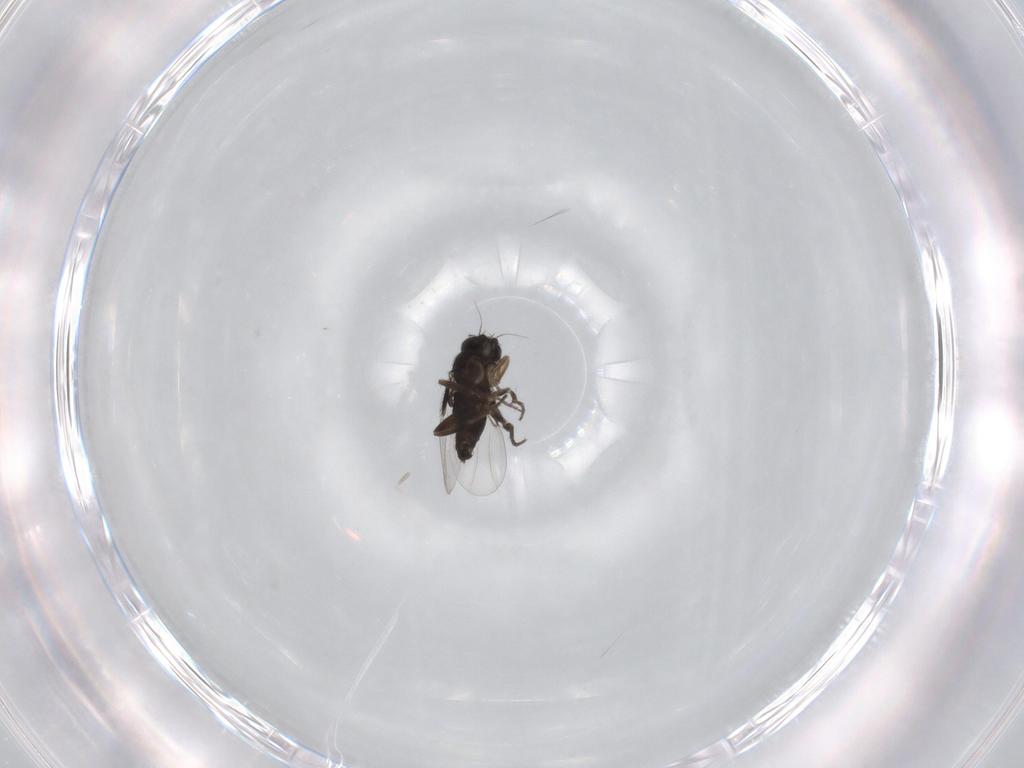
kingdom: Animalia
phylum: Arthropoda
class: Insecta
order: Diptera
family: Phoridae
